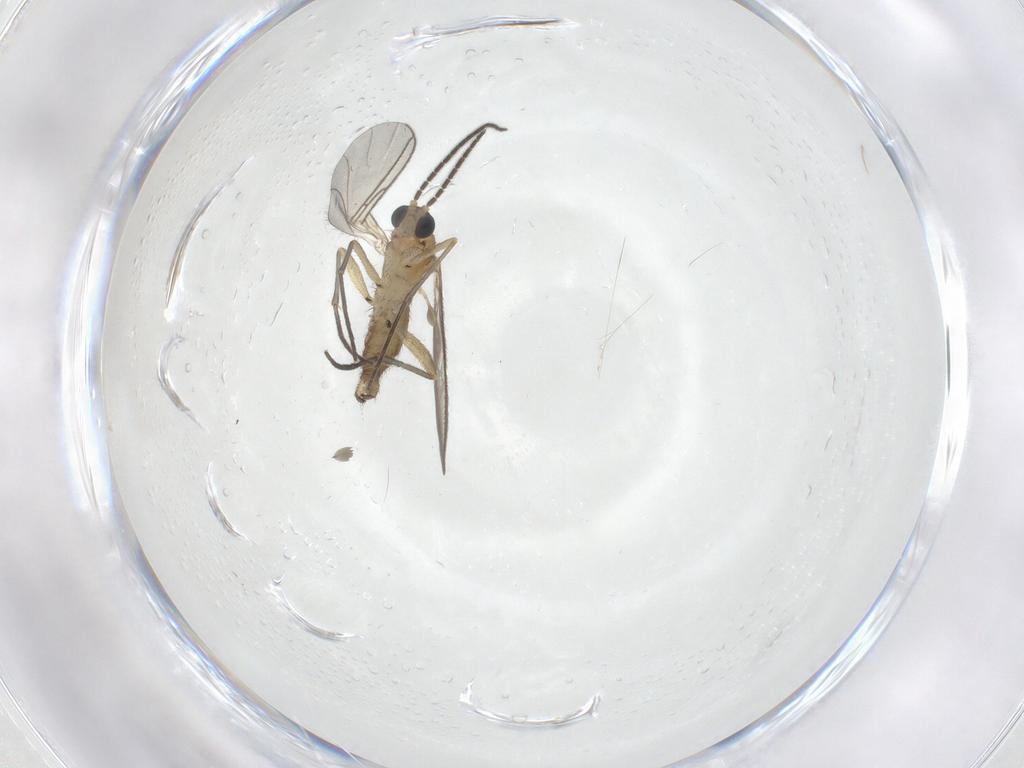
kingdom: Animalia
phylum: Arthropoda
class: Insecta
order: Diptera
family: Sciaridae
